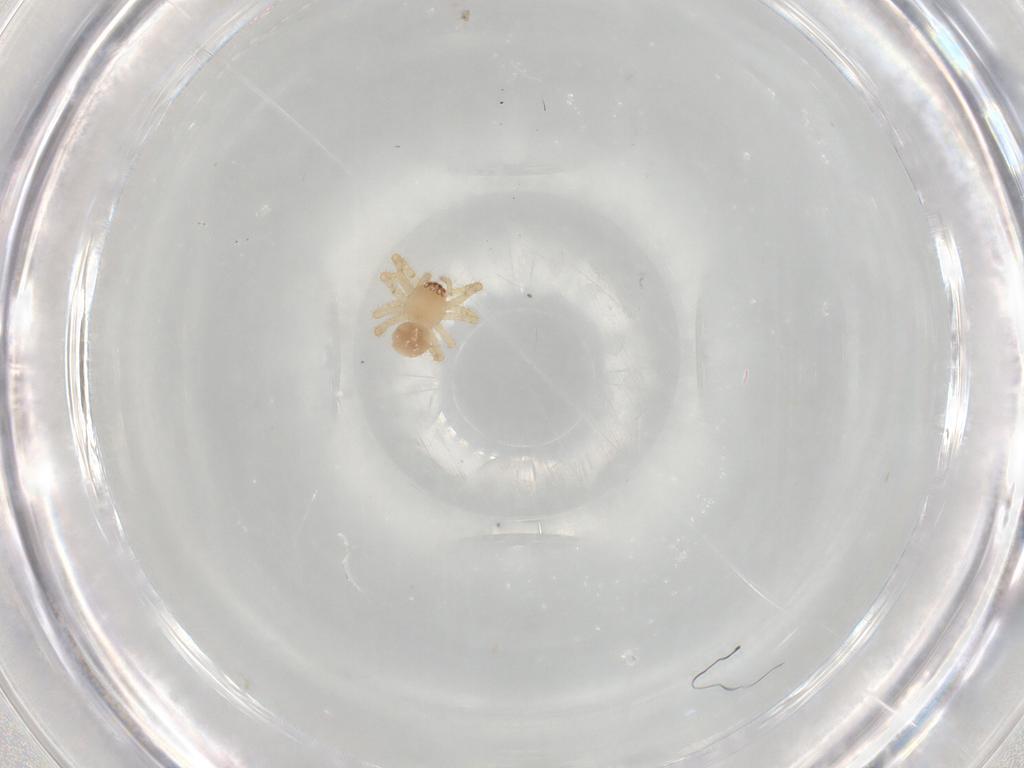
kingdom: Animalia
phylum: Arthropoda
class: Arachnida
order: Araneae
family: Theridiidae
